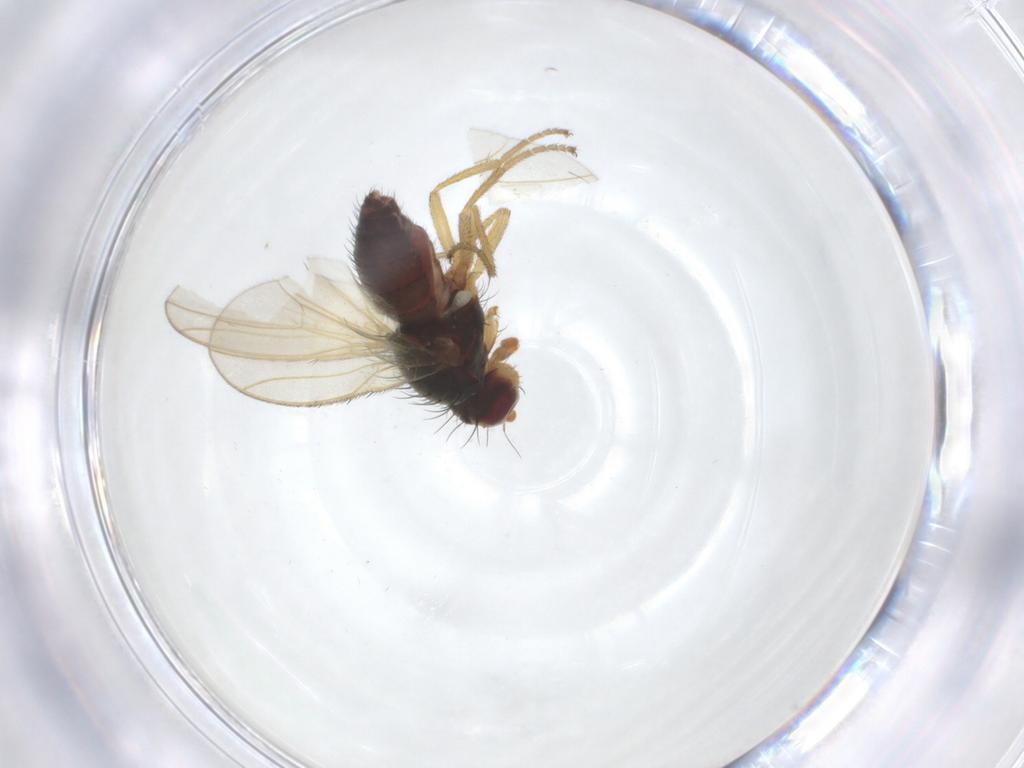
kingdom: Animalia
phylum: Arthropoda
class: Insecta
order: Diptera
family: Heleomyzidae
